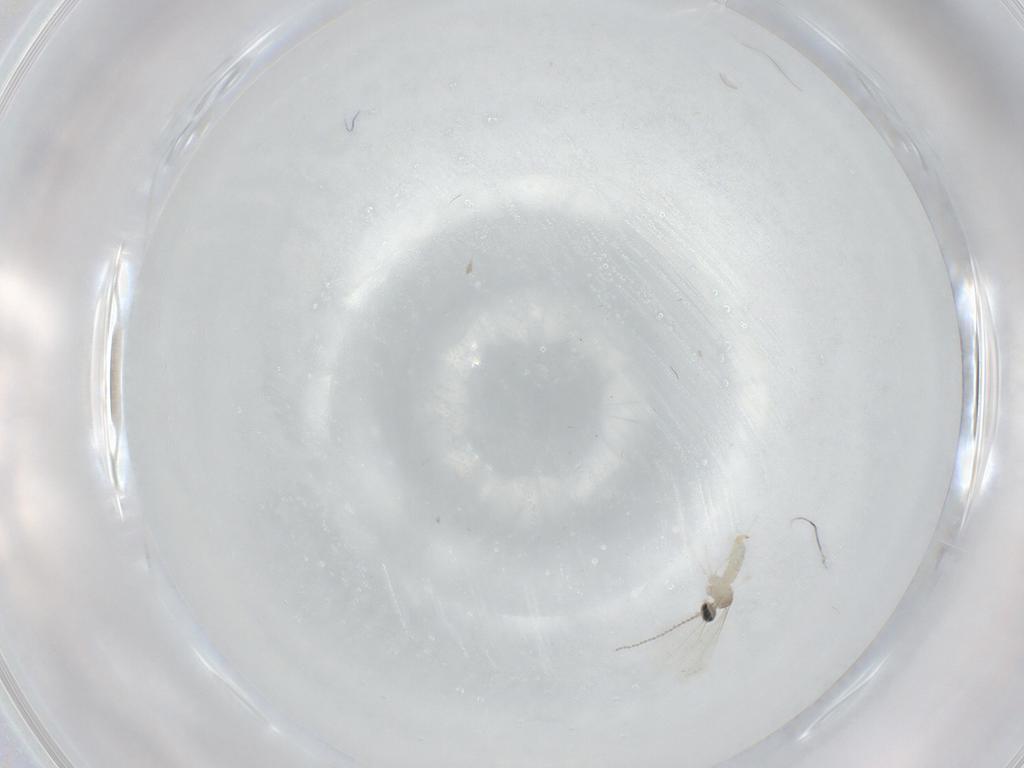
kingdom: Animalia
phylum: Arthropoda
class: Insecta
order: Diptera
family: Cecidomyiidae
